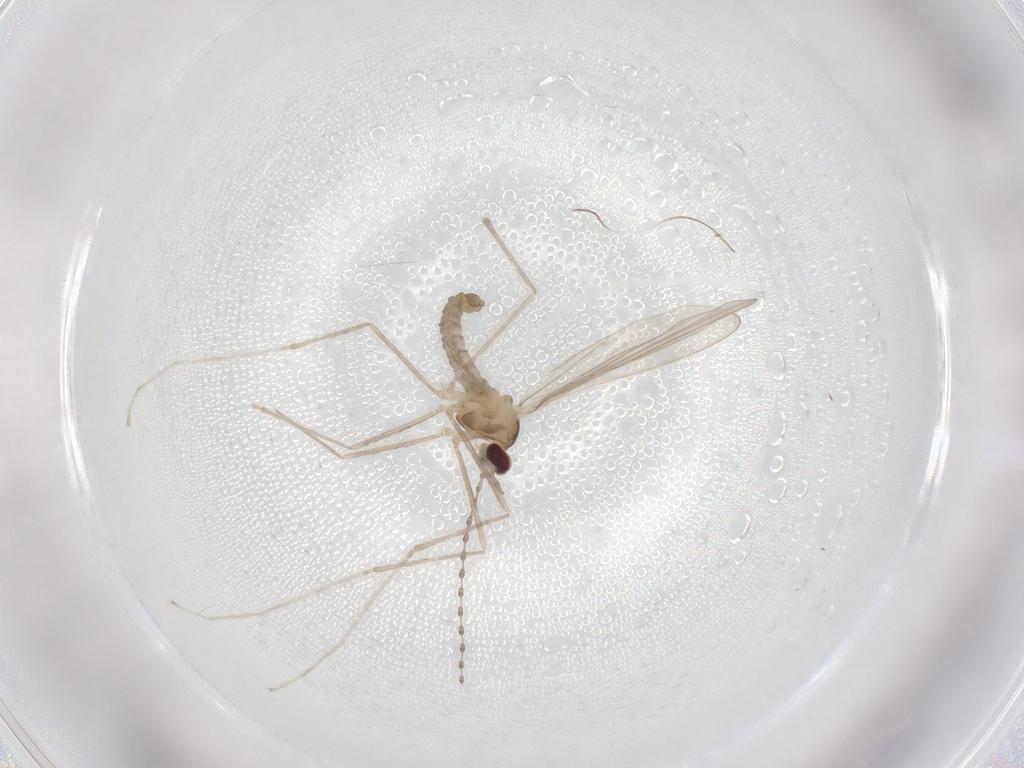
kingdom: Animalia
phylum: Arthropoda
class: Insecta
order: Diptera
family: Cecidomyiidae
